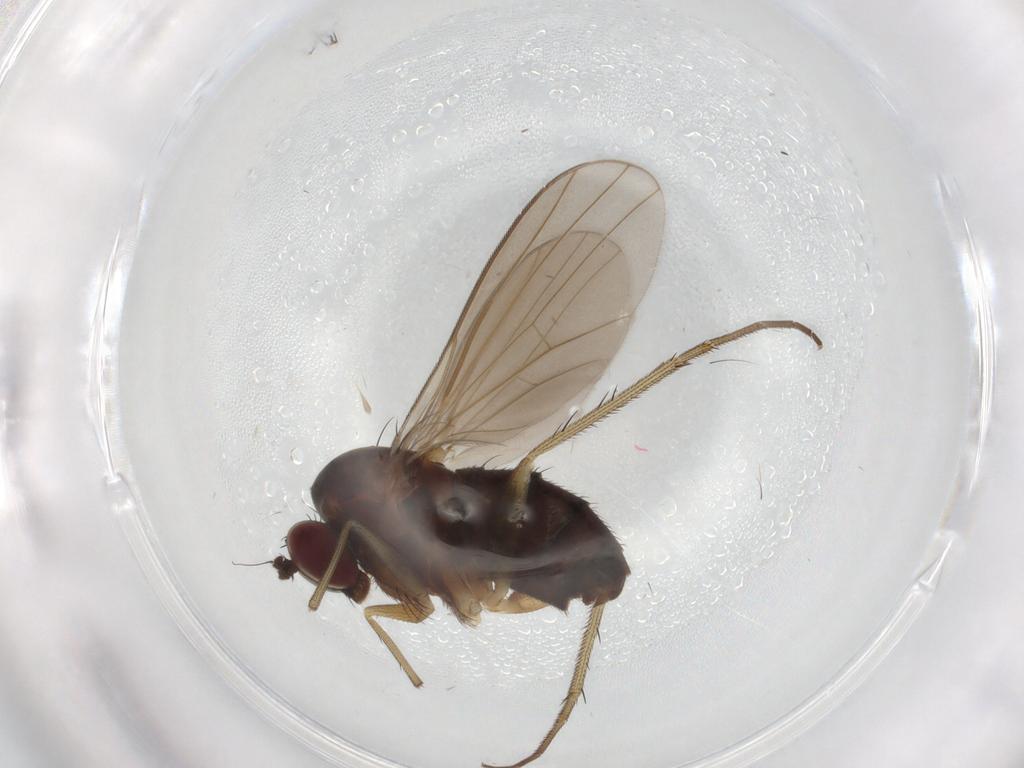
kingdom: Animalia
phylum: Arthropoda
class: Insecta
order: Diptera
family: Dolichopodidae
